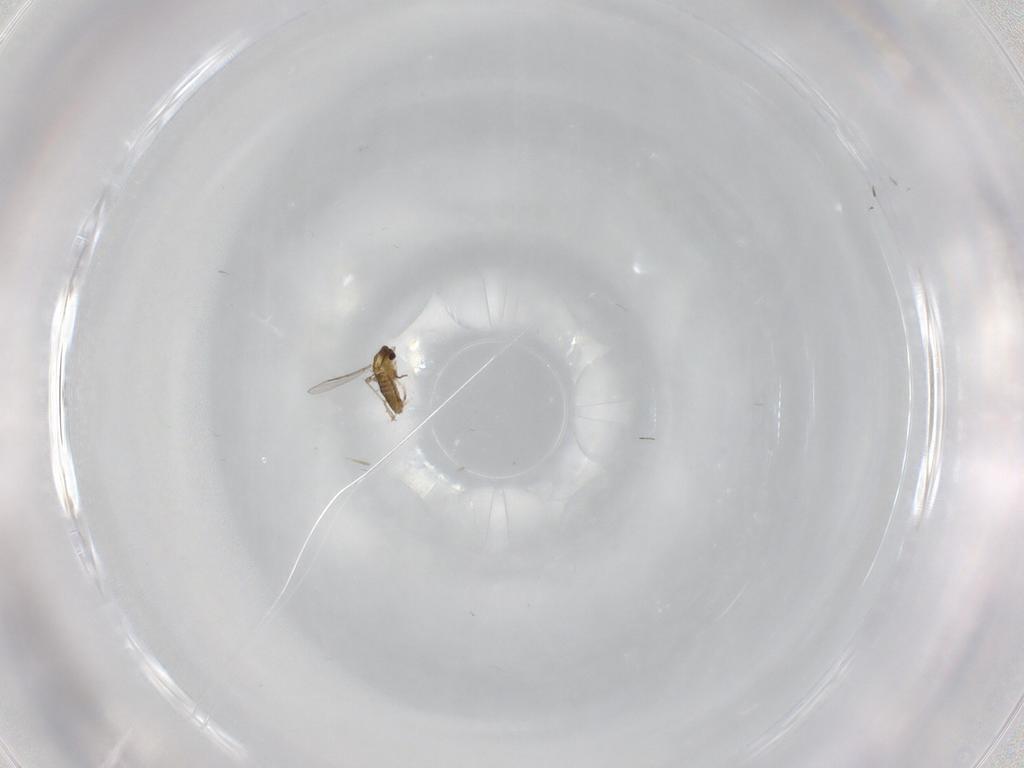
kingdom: Animalia
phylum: Arthropoda
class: Insecta
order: Diptera
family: Chironomidae
